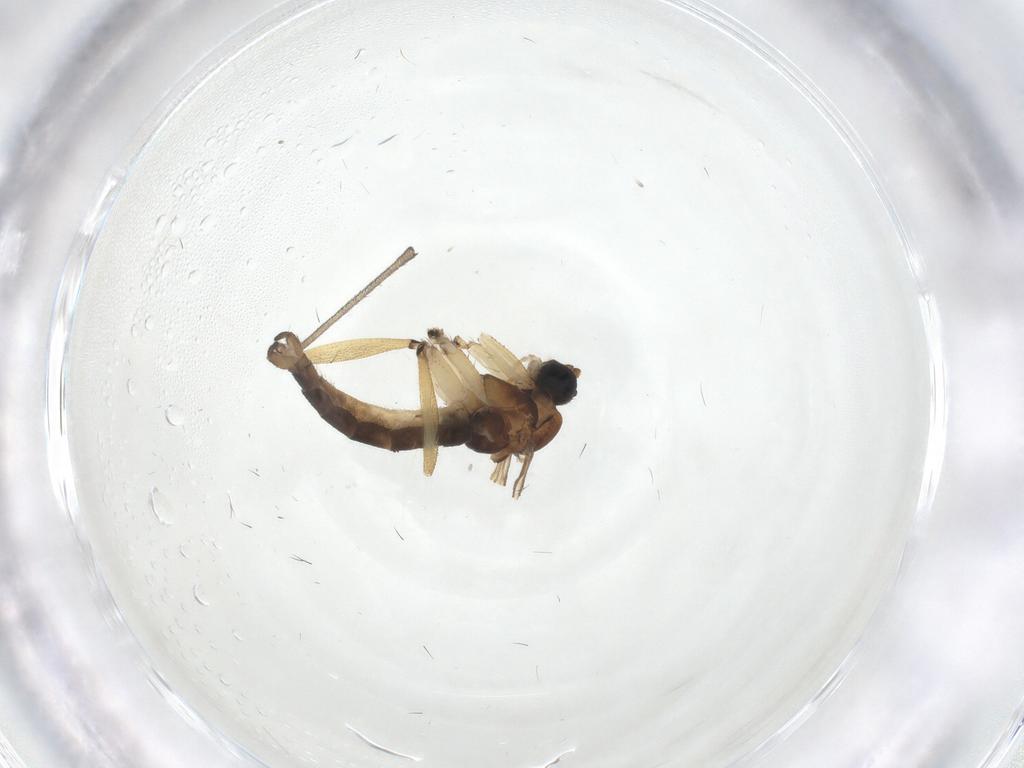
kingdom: Animalia
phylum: Arthropoda
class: Insecta
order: Diptera
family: Sciaridae
